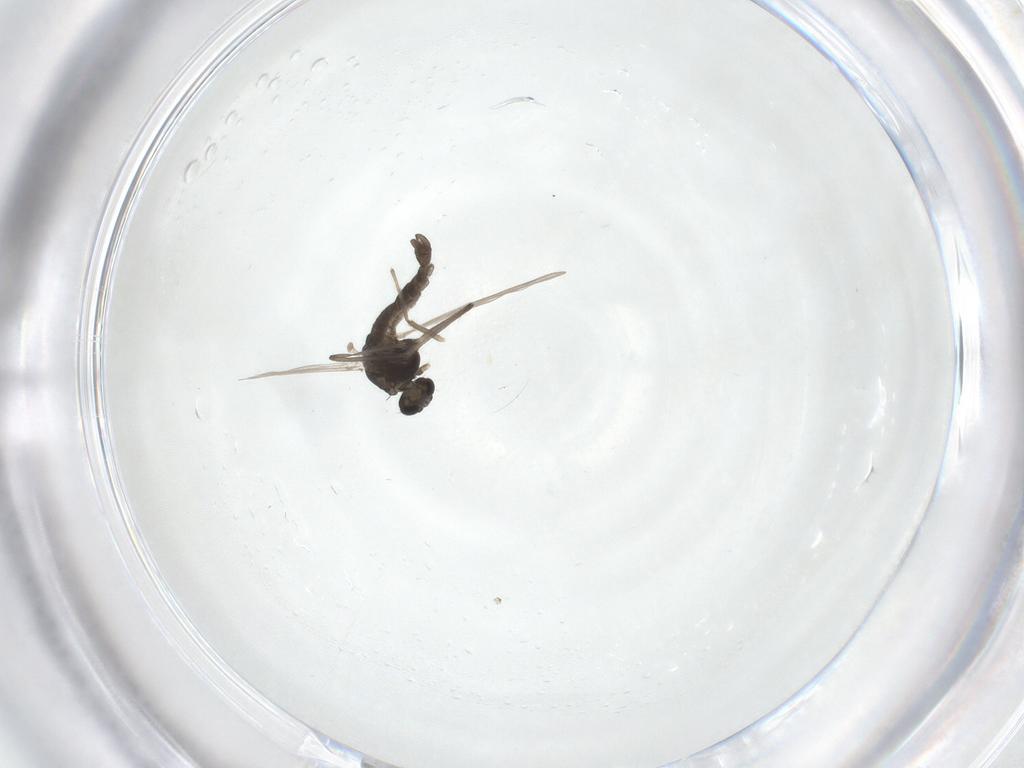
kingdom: Animalia
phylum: Arthropoda
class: Insecta
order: Diptera
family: Chironomidae
